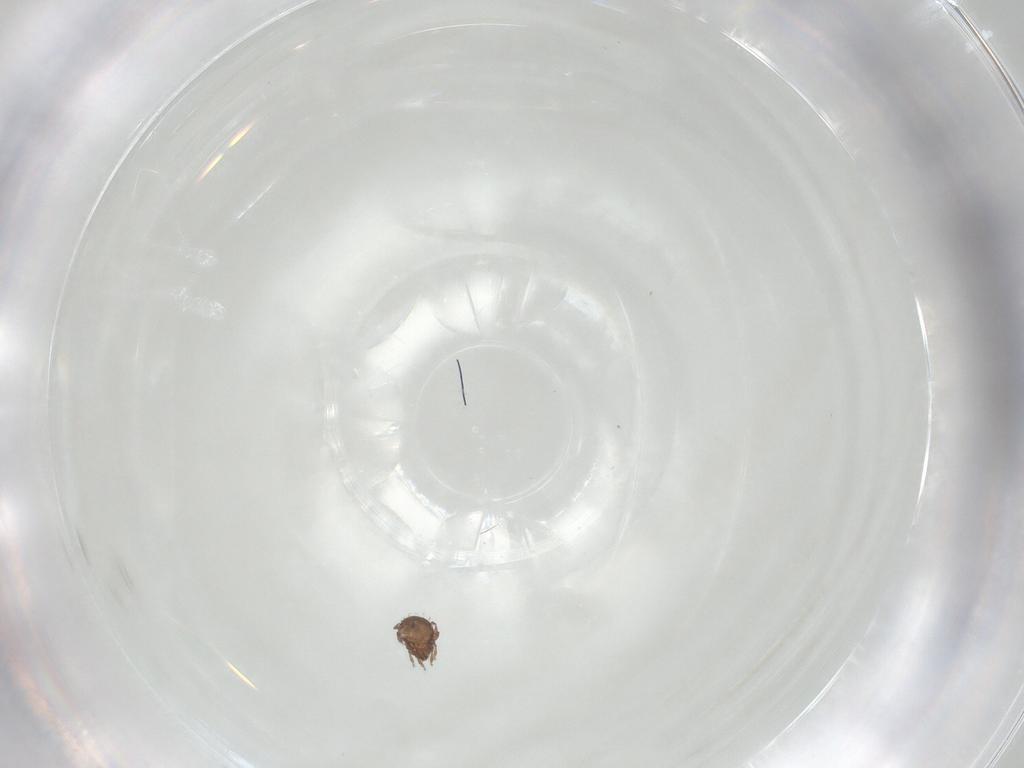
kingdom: Animalia
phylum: Arthropoda
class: Arachnida
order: Sarcoptiformes
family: Scheloribatidae
